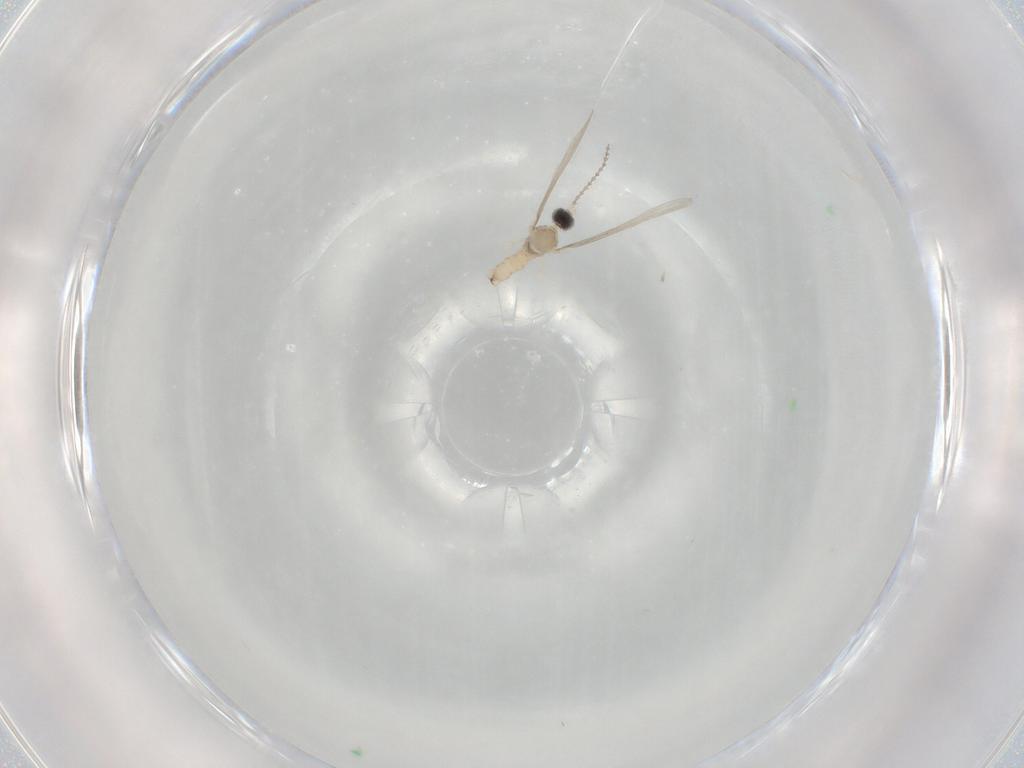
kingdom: Animalia
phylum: Arthropoda
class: Insecta
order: Diptera
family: Cecidomyiidae
